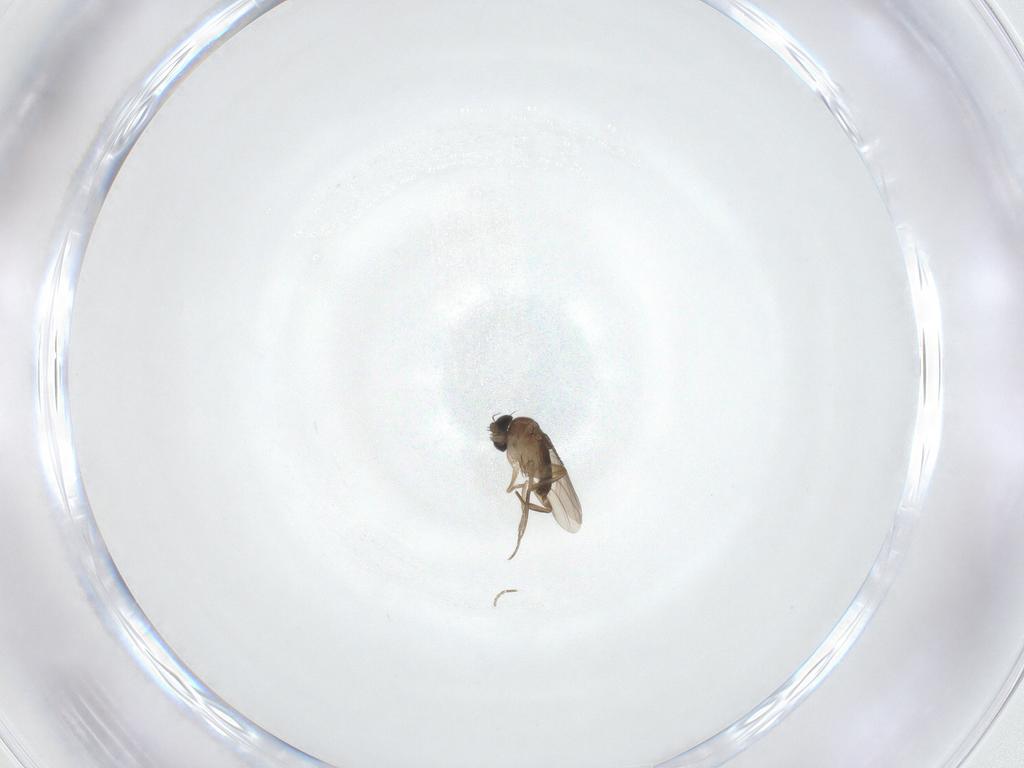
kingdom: Animalia
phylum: Arthropoda
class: Insecta
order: Diptera
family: Phoridae
